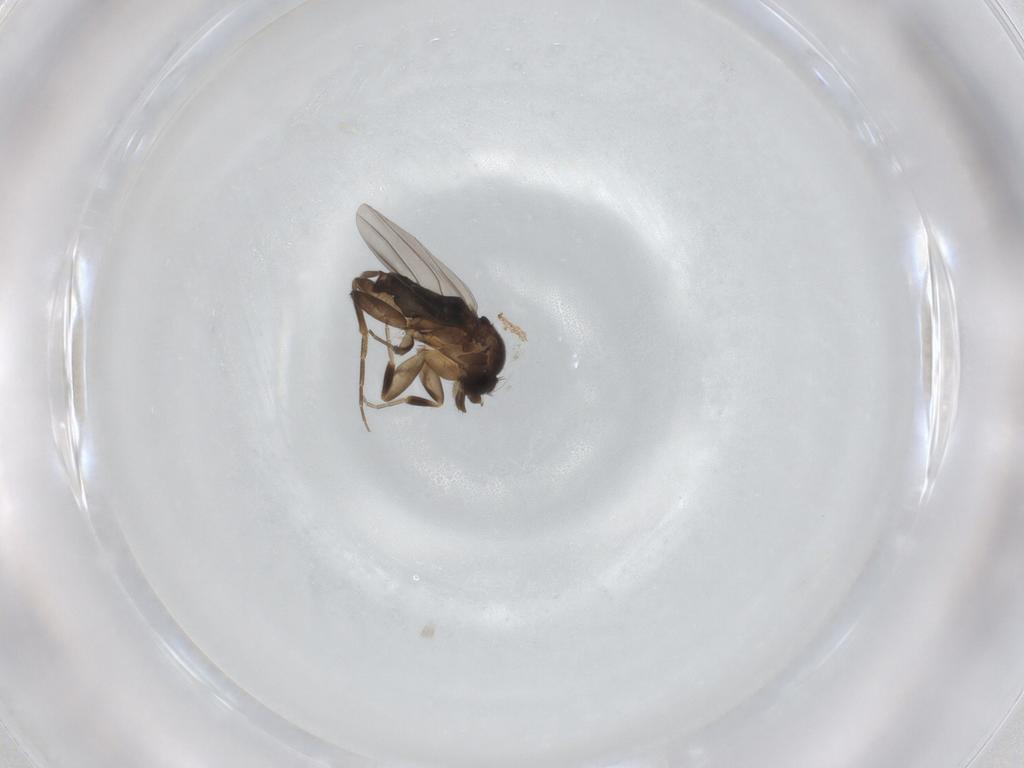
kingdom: Animalia
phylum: Arthropoda
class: Insecta
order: Diptera
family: Phoridae
